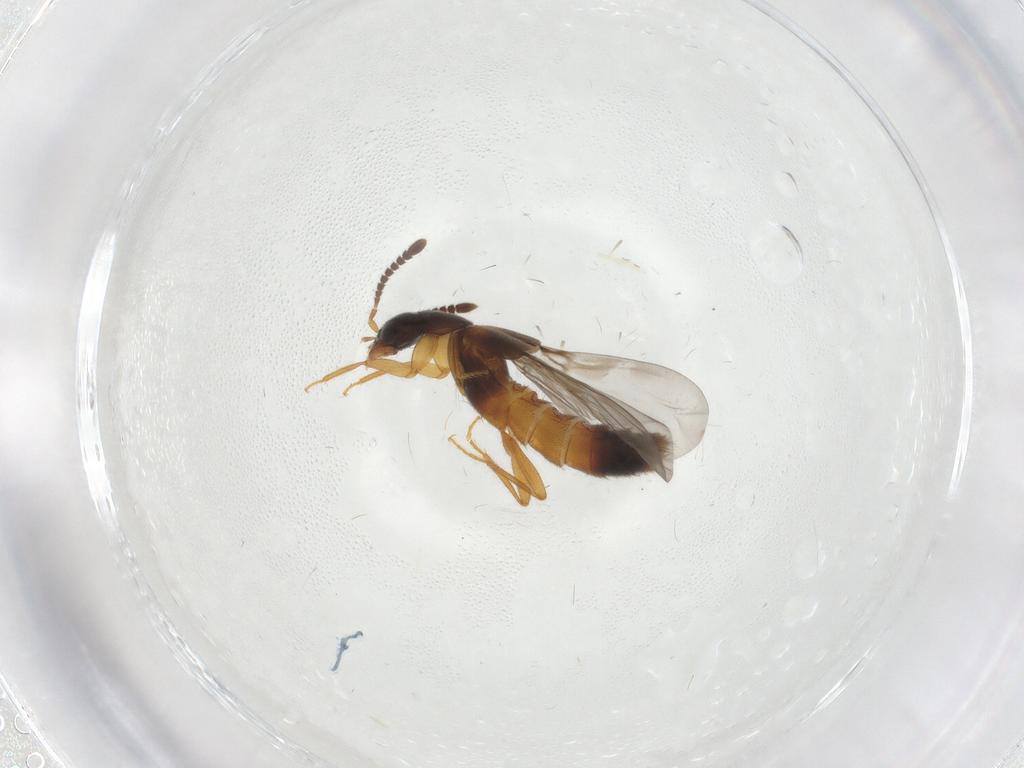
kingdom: Animalia
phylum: Arthropoda
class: Insecta
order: Coleoptera
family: Staphylinidae
